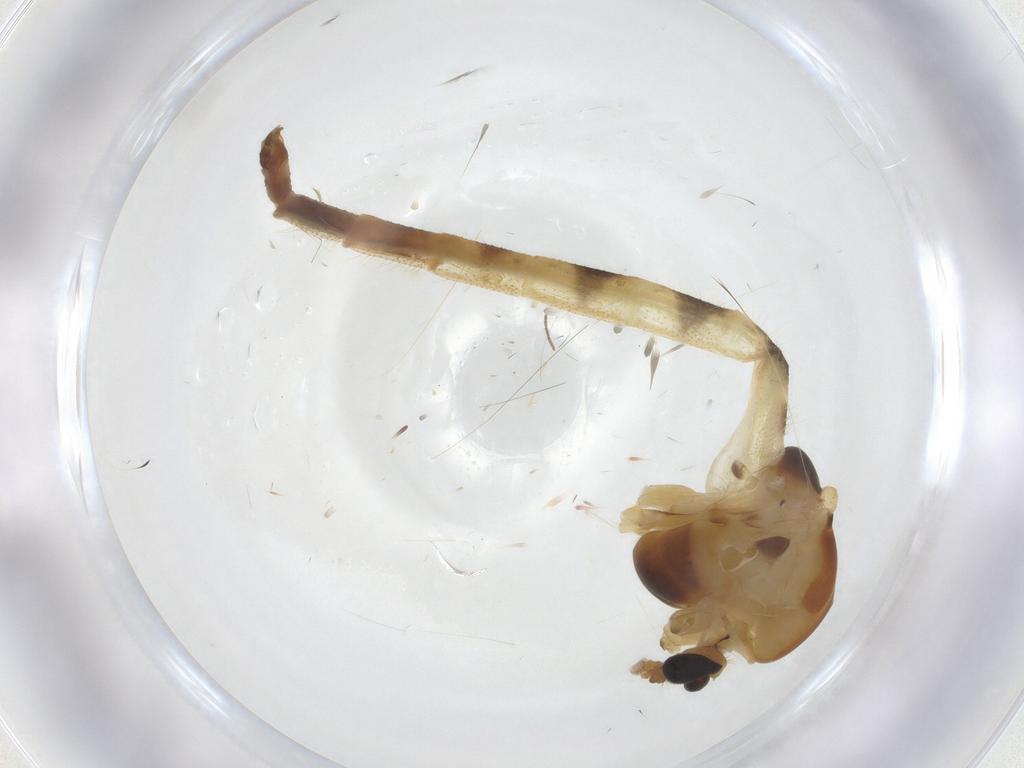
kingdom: Animalia
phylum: Arthropoda
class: Insecta
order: Diptera
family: Chironomidae
